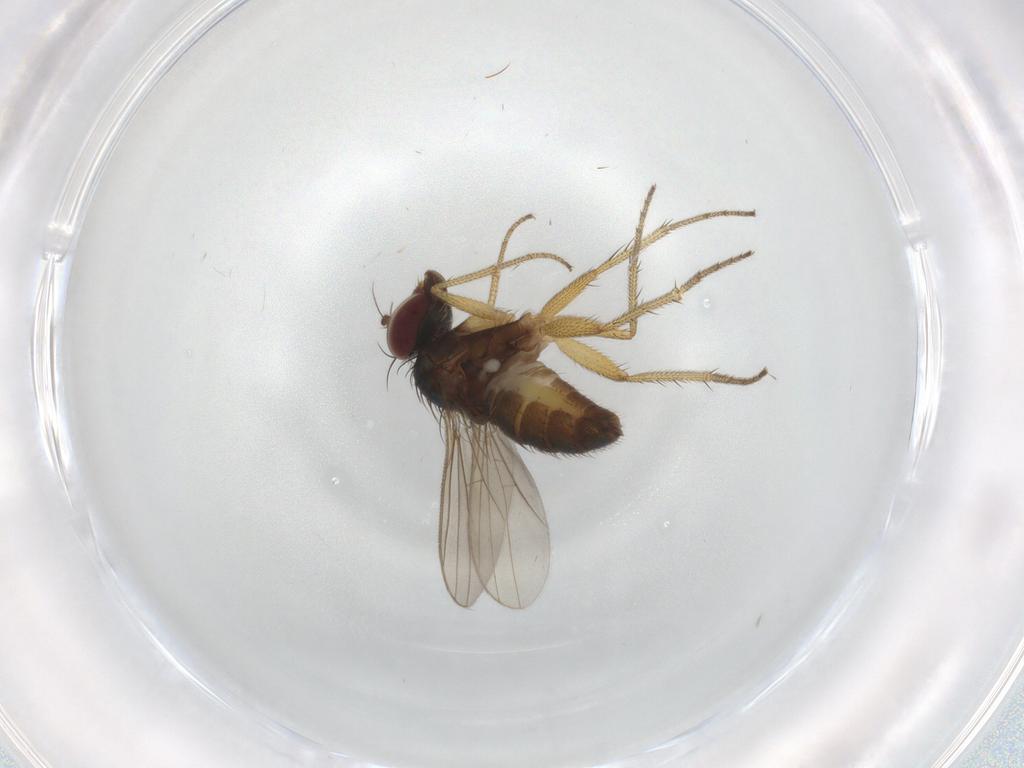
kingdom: Animalia
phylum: Arthropoda
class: Insecta
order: Diptera
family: Dolichopodidae
